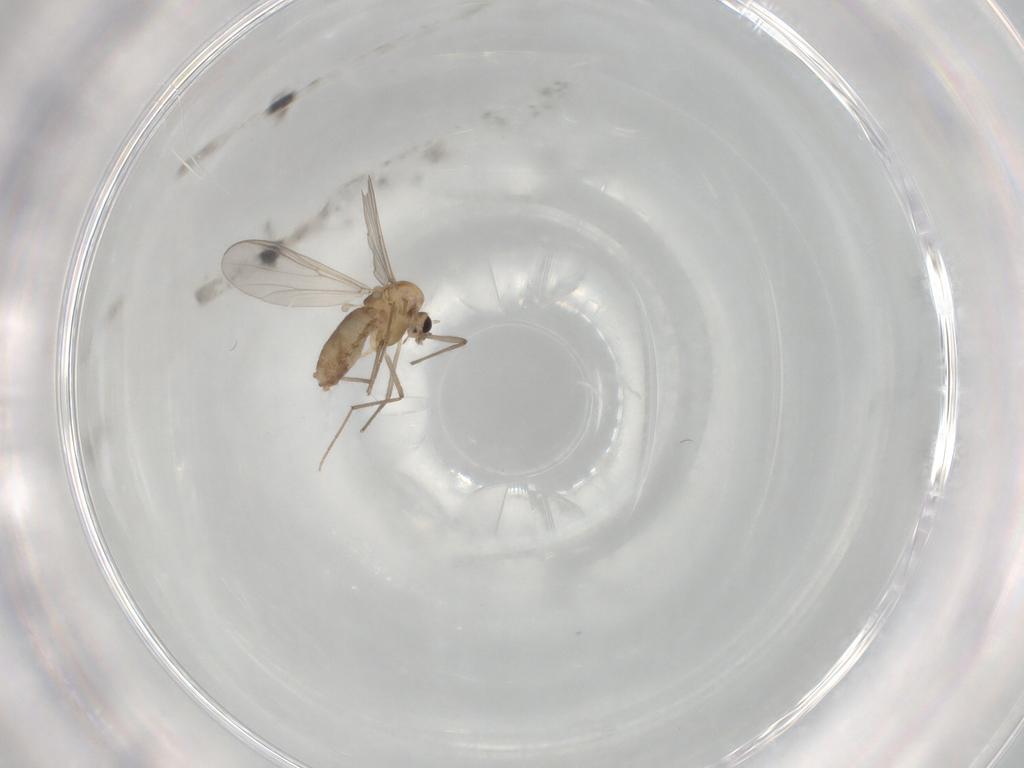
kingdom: Animalia
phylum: Arthropoda
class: Insecta
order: Diptera
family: Chironomidae
